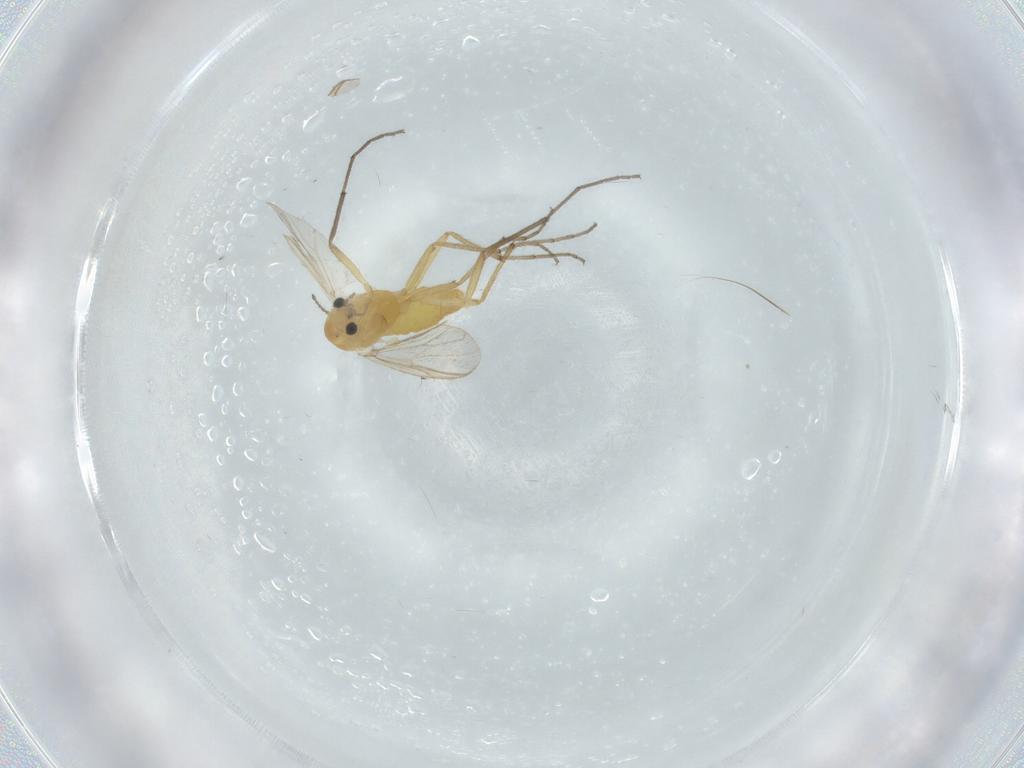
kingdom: Animalia
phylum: Arthropoda
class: Insecta
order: Diptera
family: Chironomidae
